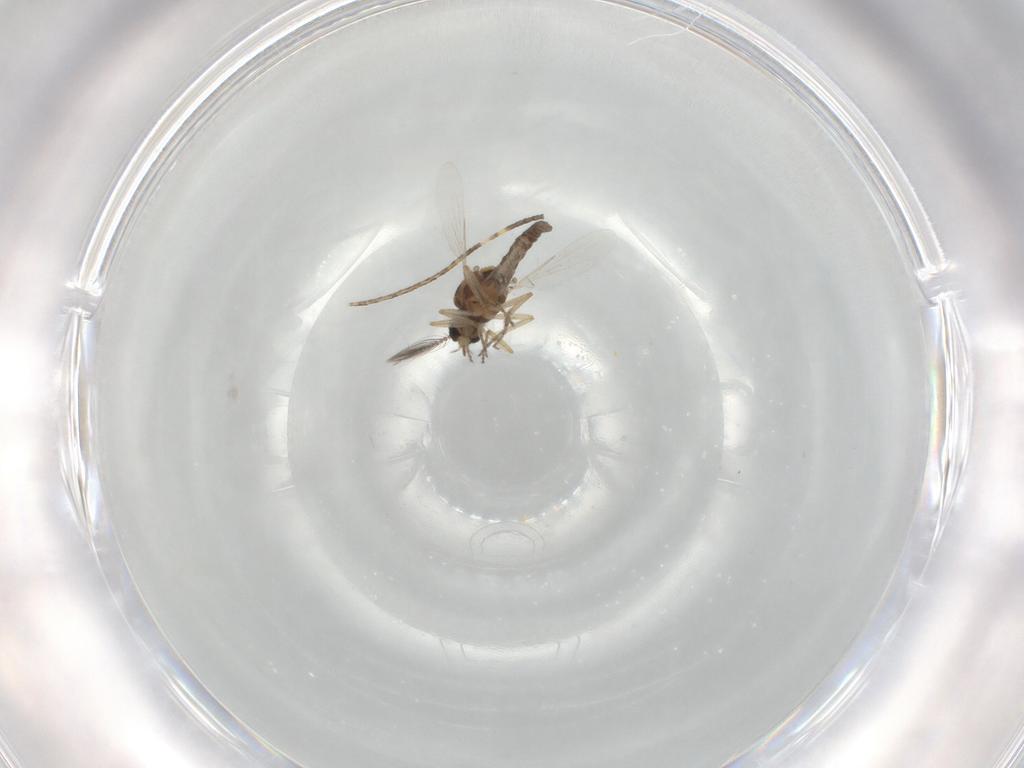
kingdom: Animalia
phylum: Arthropoda
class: Insecta
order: Diptera
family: Ceratopogonidae
